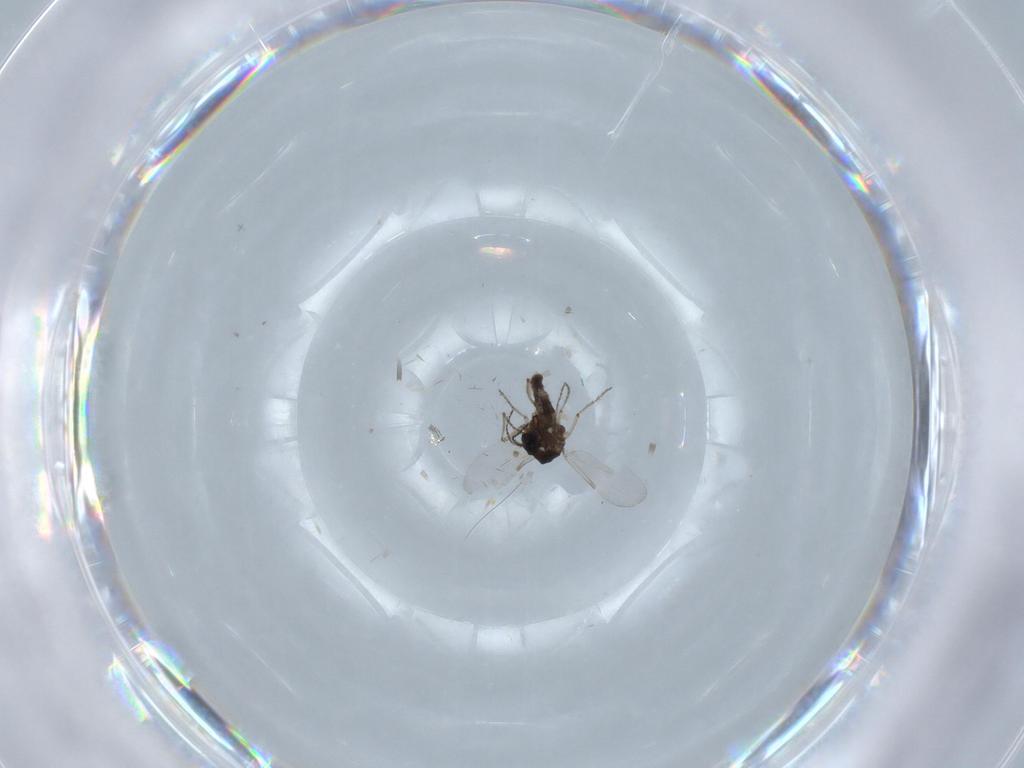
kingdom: Animalia
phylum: Arthropoda
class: Insecta
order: Diptera
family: Ceratopogonidae
